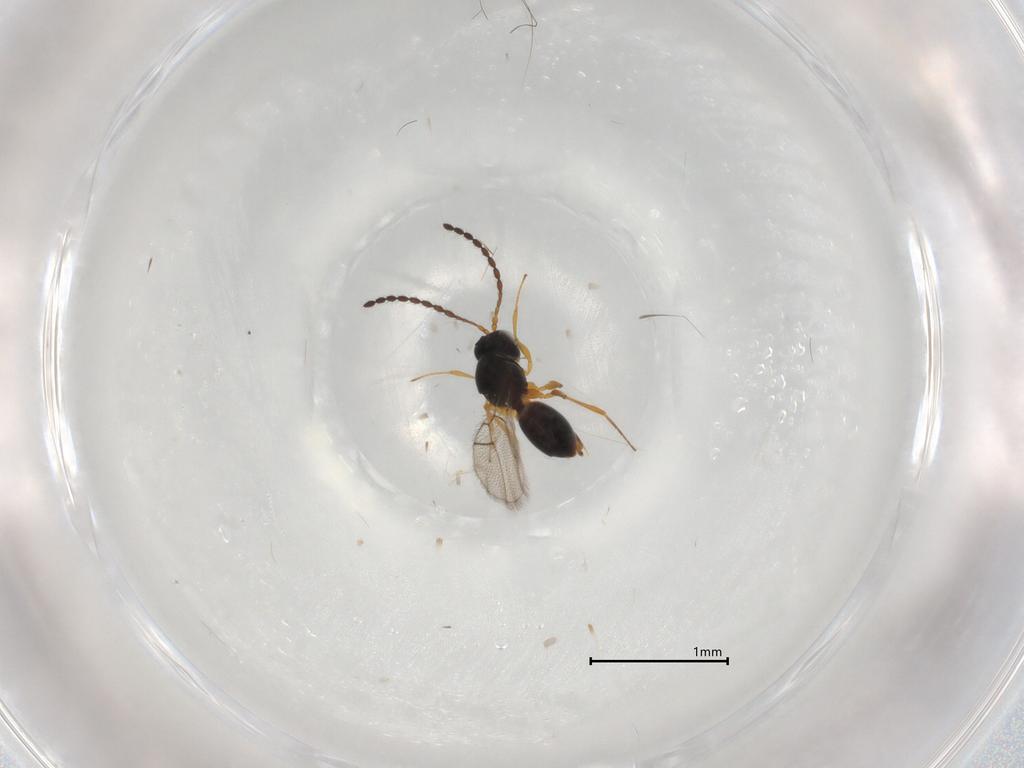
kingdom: Animalia
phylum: Arthropoda
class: Insecta
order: Hymenoptera
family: Figitidae
